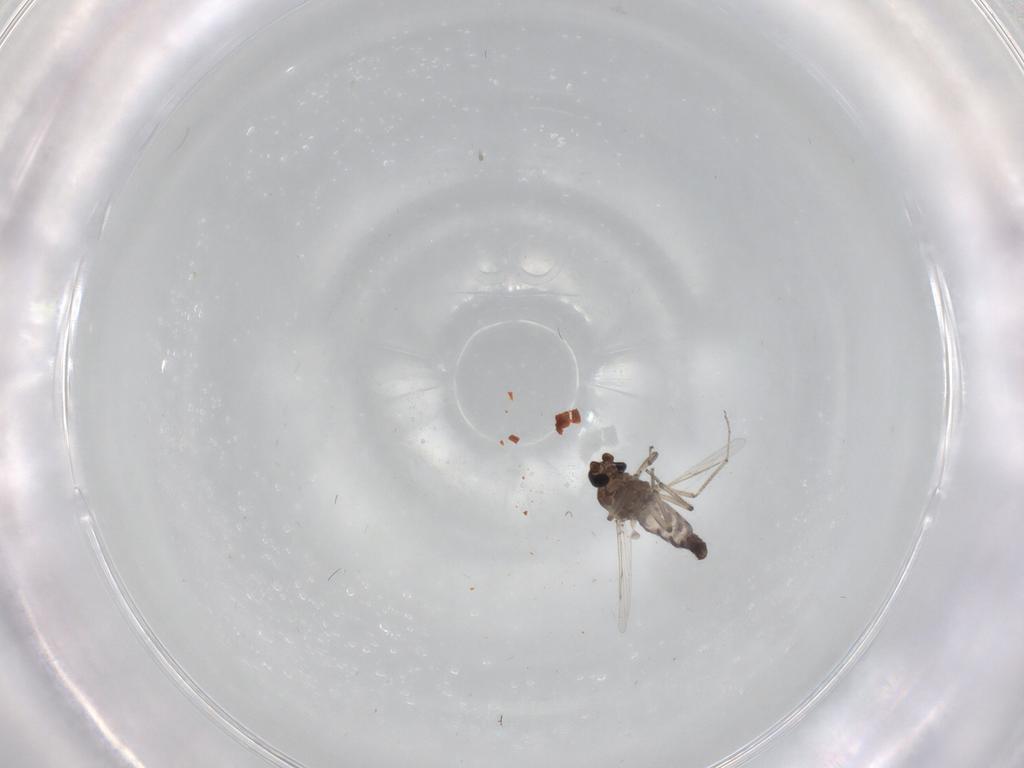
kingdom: Animalia
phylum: Arthropoda
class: Insecta
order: Diptera
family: Ceratopogonidae
